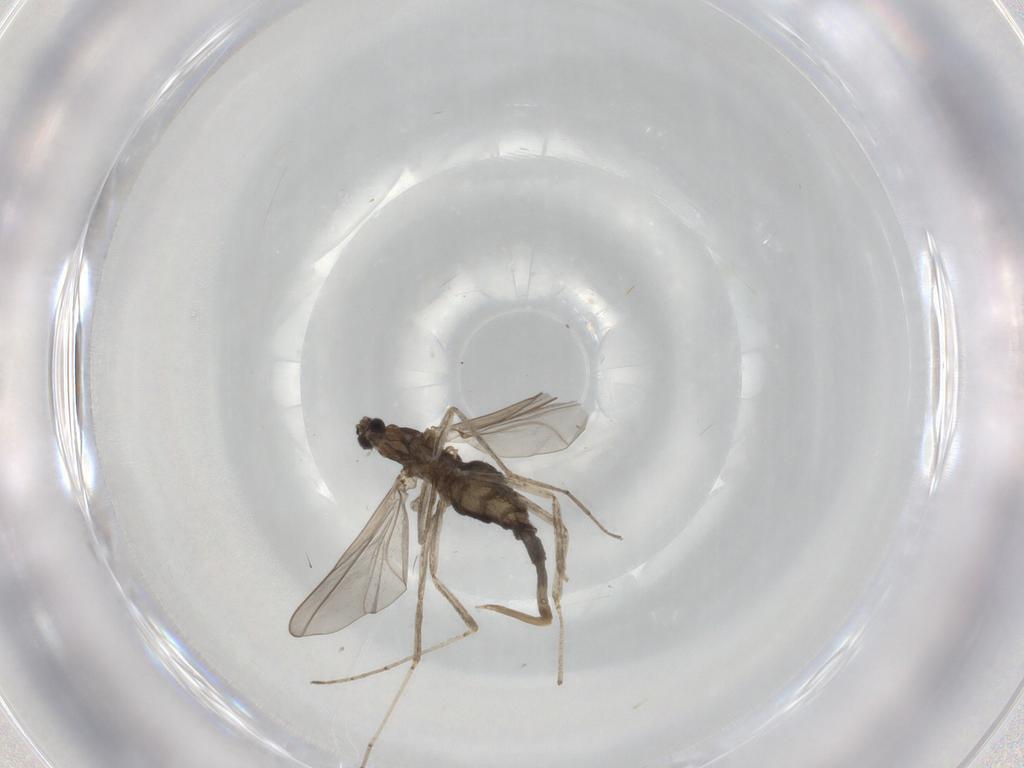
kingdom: Animalia
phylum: Arthropoda
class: Insecta
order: Diptera
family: Cecidomyiidae
